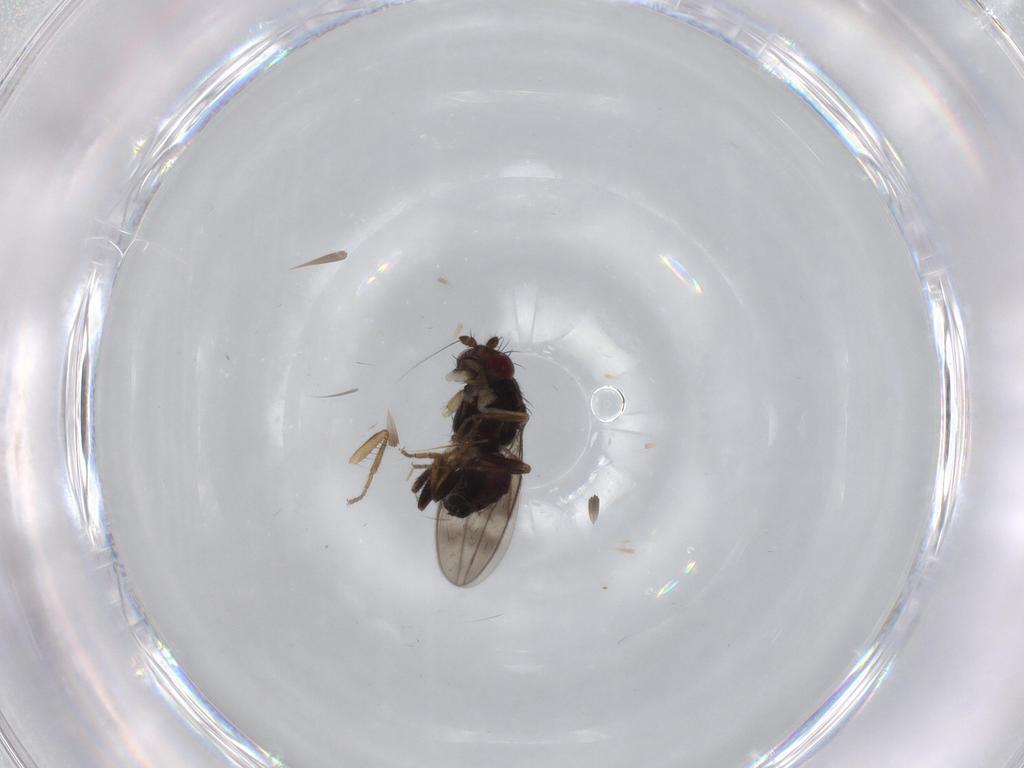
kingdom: Animalia
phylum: Arthropoda
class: Insecta
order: Diptera
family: Sphaeroceridae
